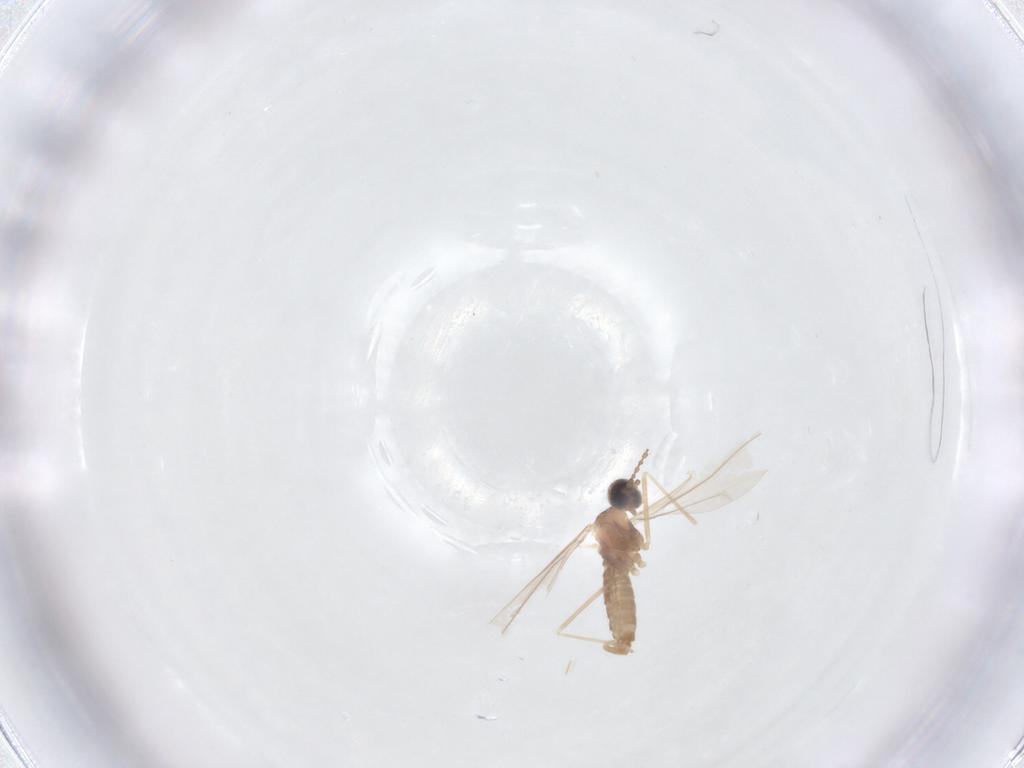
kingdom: Animalia
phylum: Arthropoda
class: Insecta
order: Diptera
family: Cecidomyiidae
